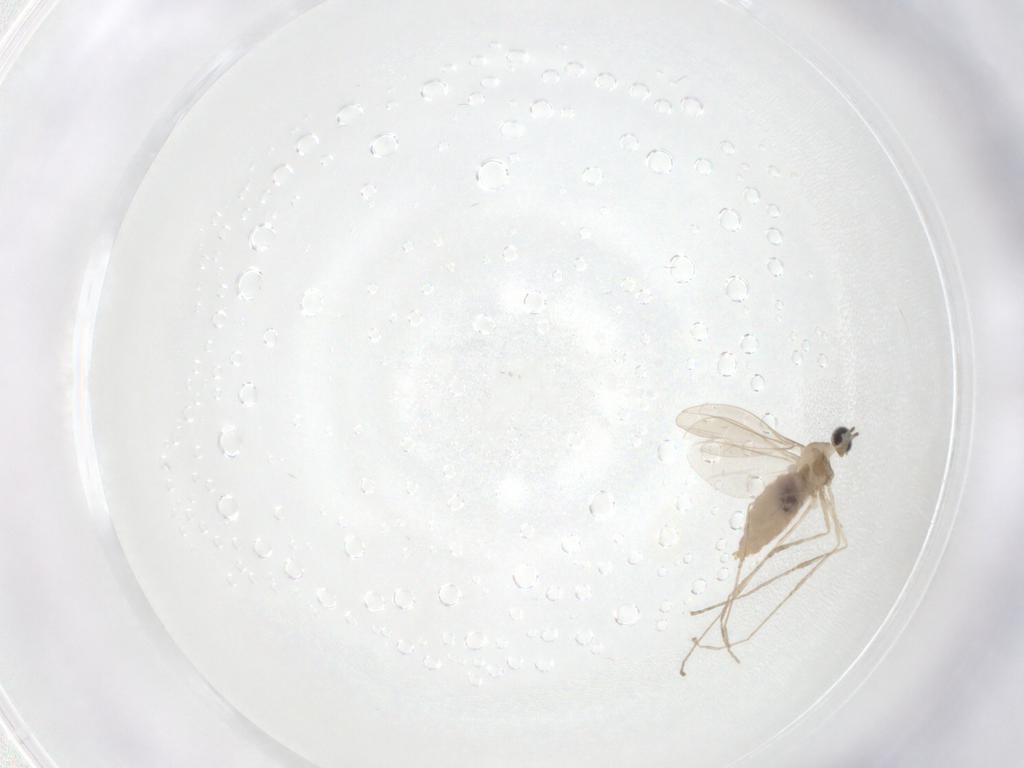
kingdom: Animalia
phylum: Arthropoda
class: Insecta
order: Diptera
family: Cecidomyiidae
